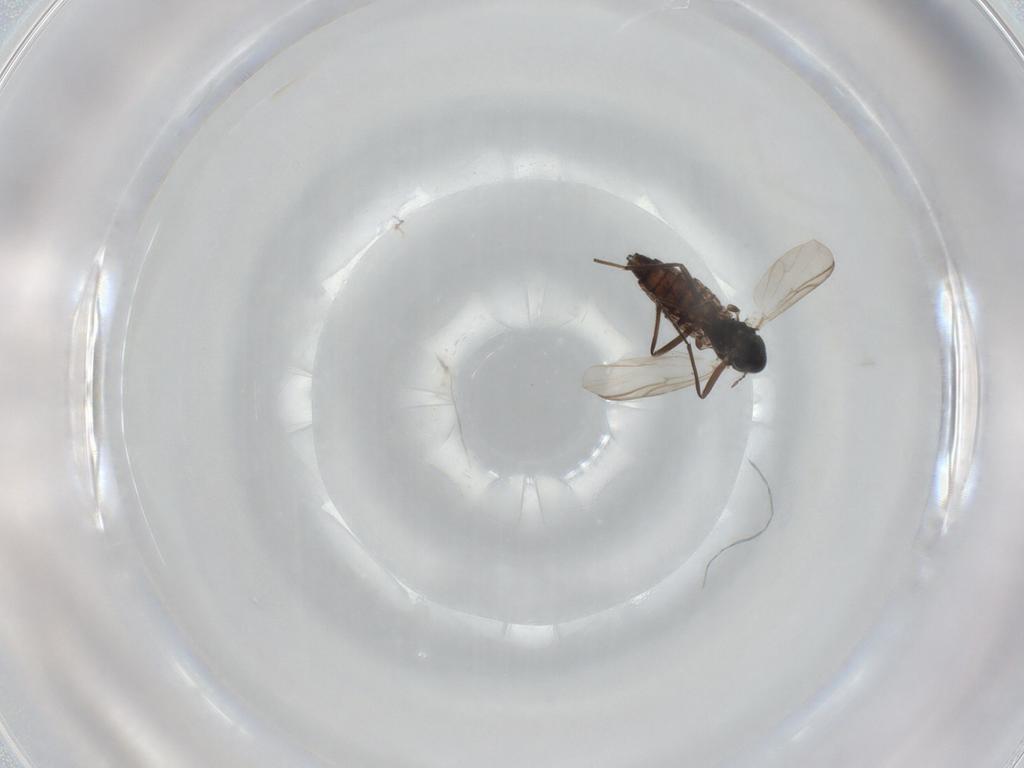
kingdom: Animalia
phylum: Arthropoda
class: Insecta
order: Diptera
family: Chironomidae
